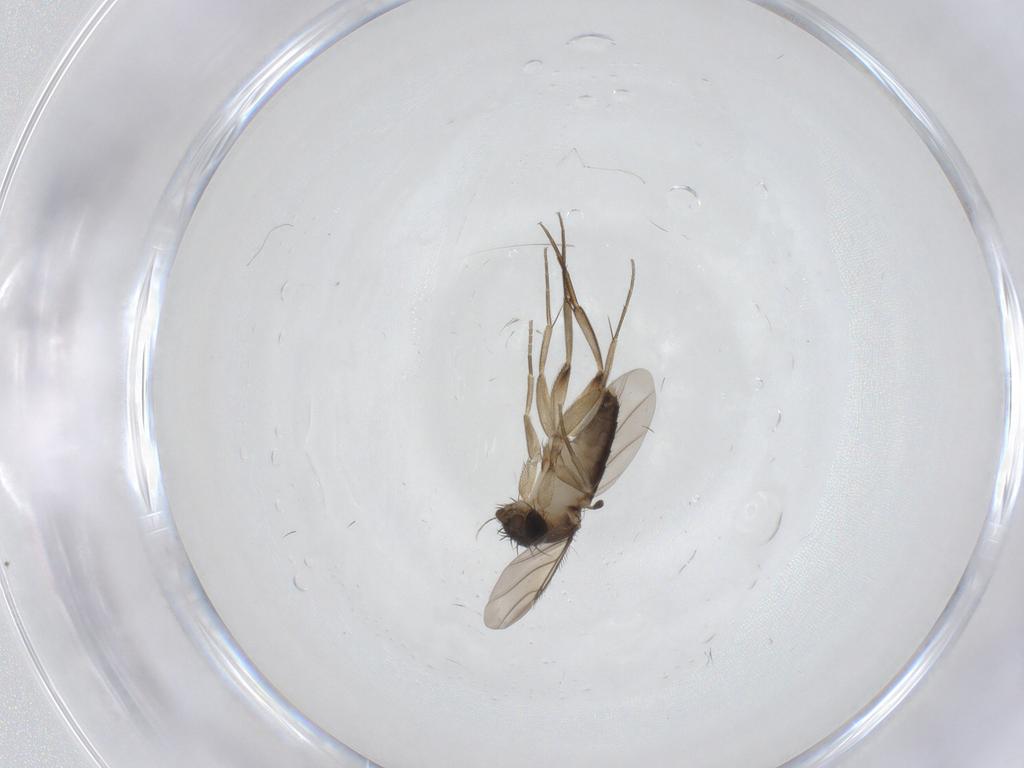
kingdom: Animalia
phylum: Arthropoda
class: Insecta
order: Diptera
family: Phoridae
